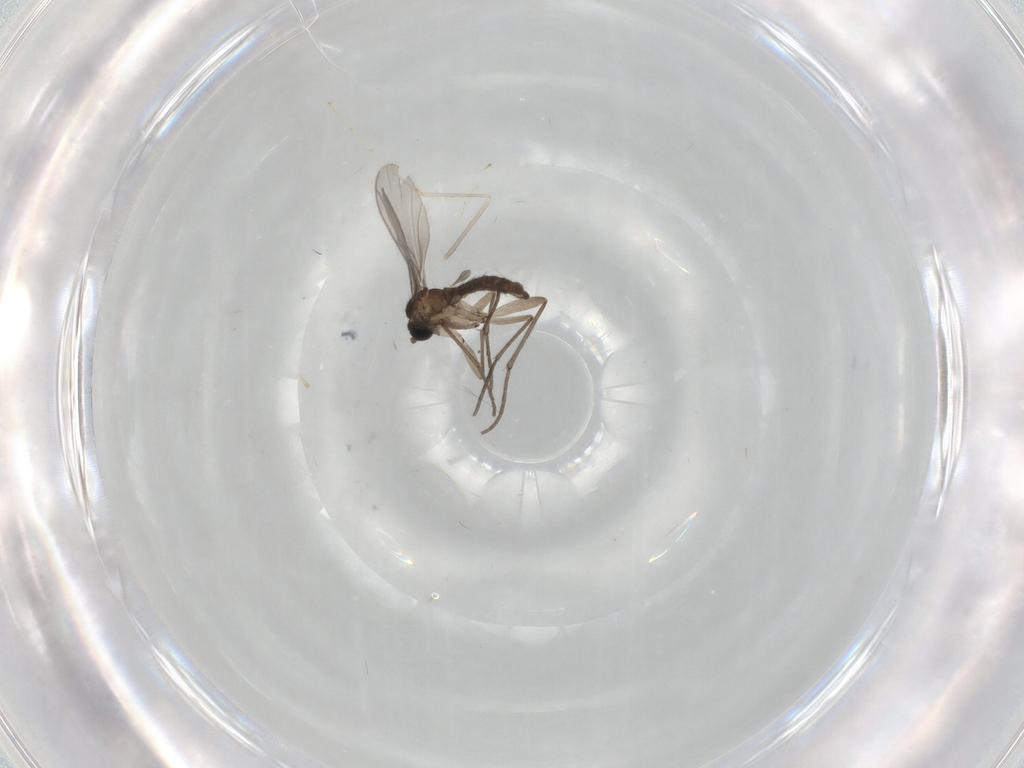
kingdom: Animalia
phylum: Arthropoda
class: Insecta
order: Diptera
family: Sciaridae
